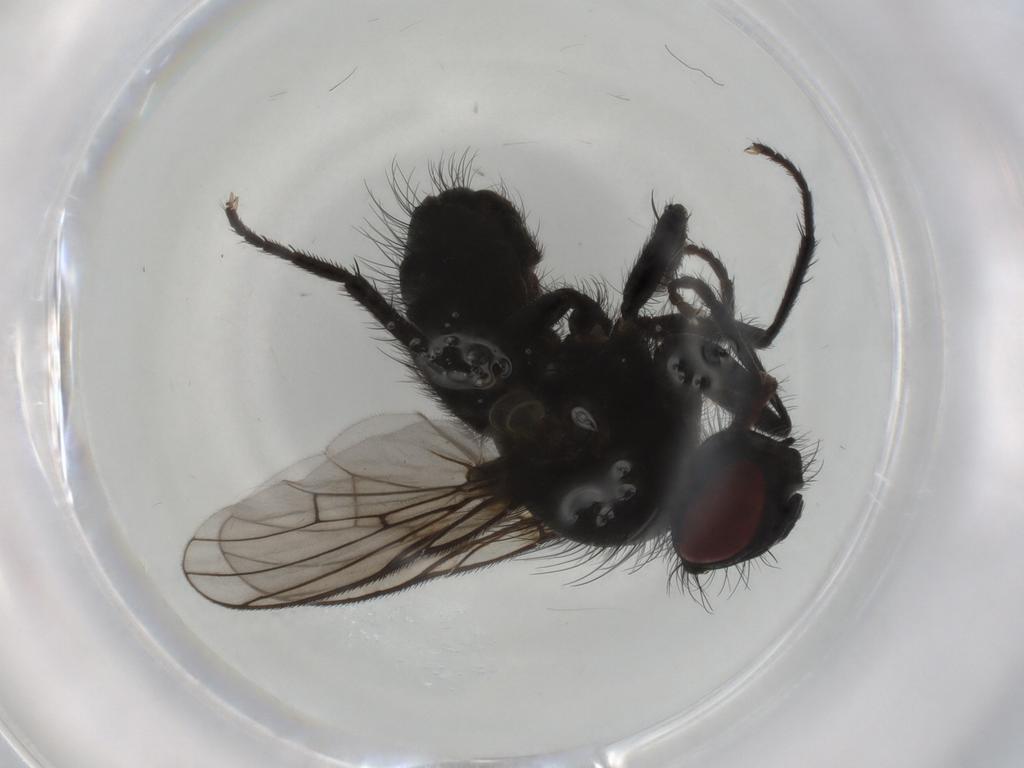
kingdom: Animalia
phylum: Arthropoda
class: Insecta
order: Diptera
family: Muscidae
